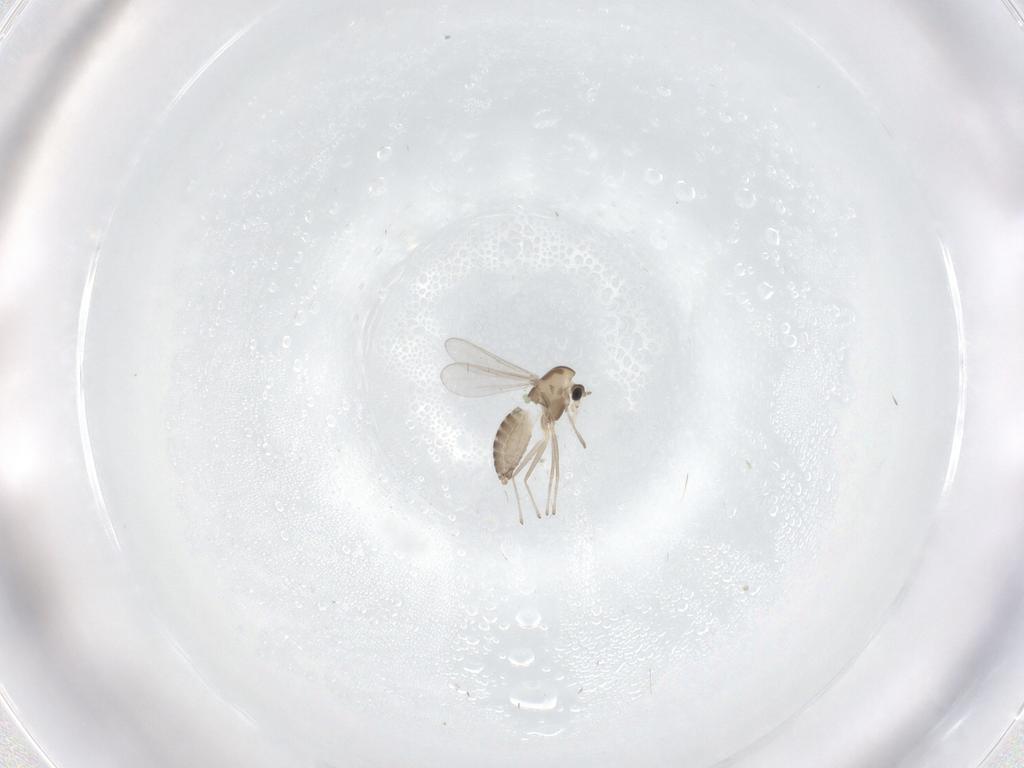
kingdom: Animalia
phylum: Arthropoda
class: Insecta
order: Diptera
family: Chironomidae
